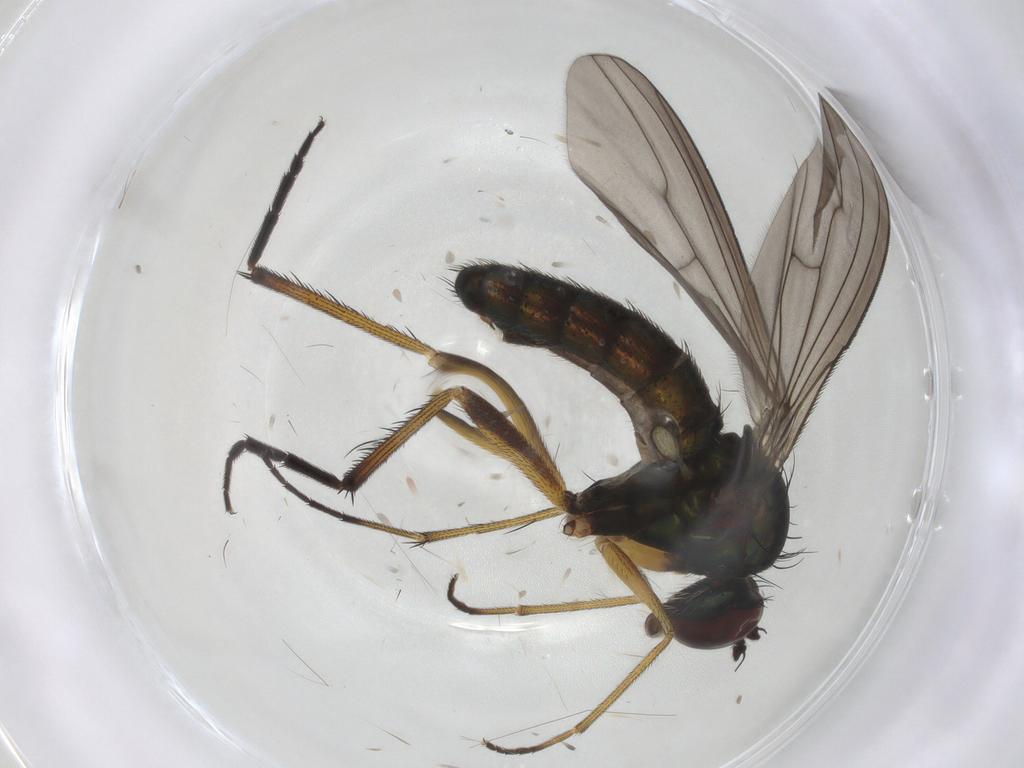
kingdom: Animalia
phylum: Arthropoda
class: Insecta
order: Diptera
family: Dolichopodidae
